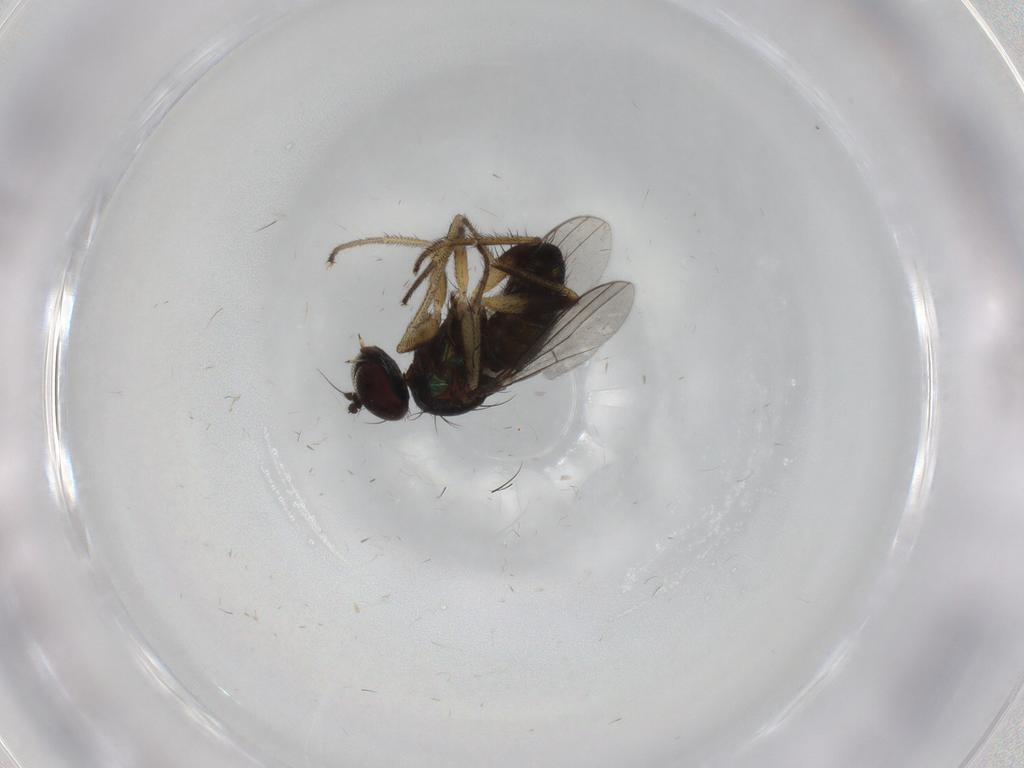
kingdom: Animalia
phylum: Arthropoda
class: Insecta
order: Diptera
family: Dolichopodidae
